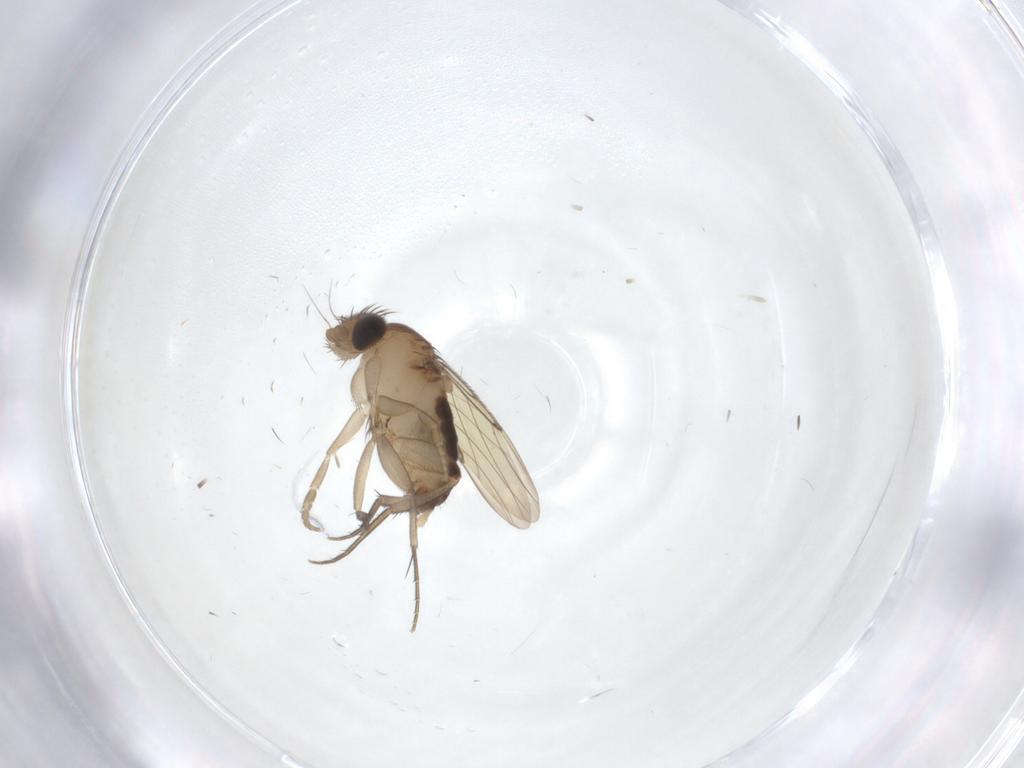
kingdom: Animalia
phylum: Arthropoda
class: Insecta
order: Diptera
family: Phoridae
